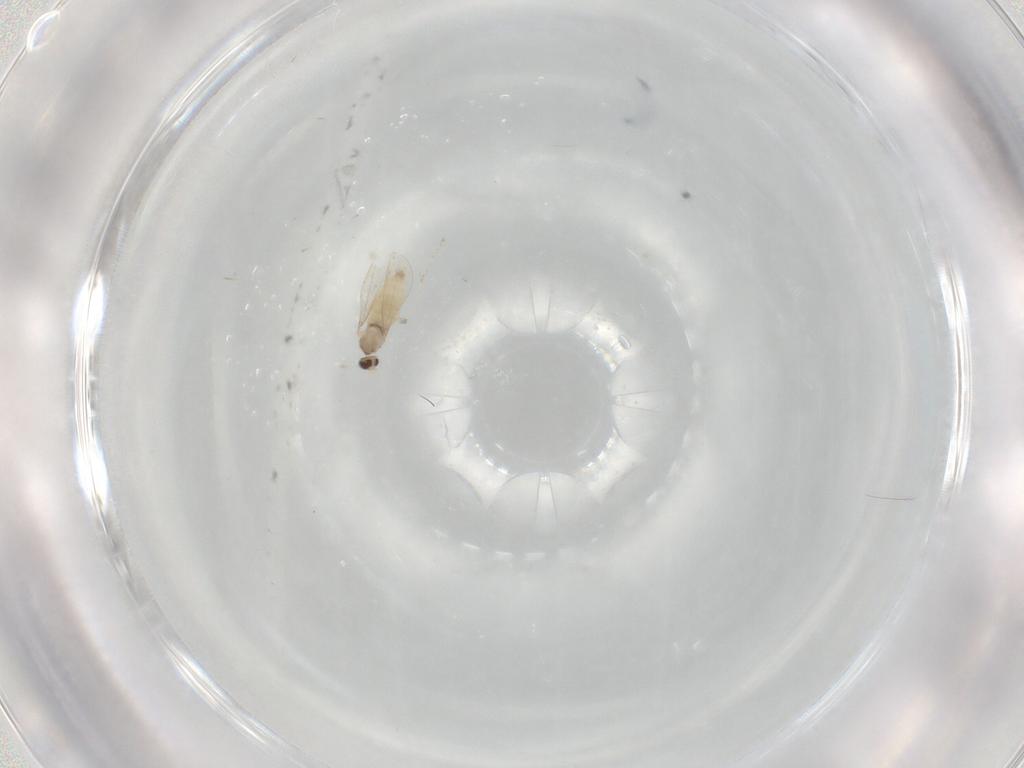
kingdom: Animalia
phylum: Arthropoda
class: Insecta
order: Diptera
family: Cecidomyiidae
